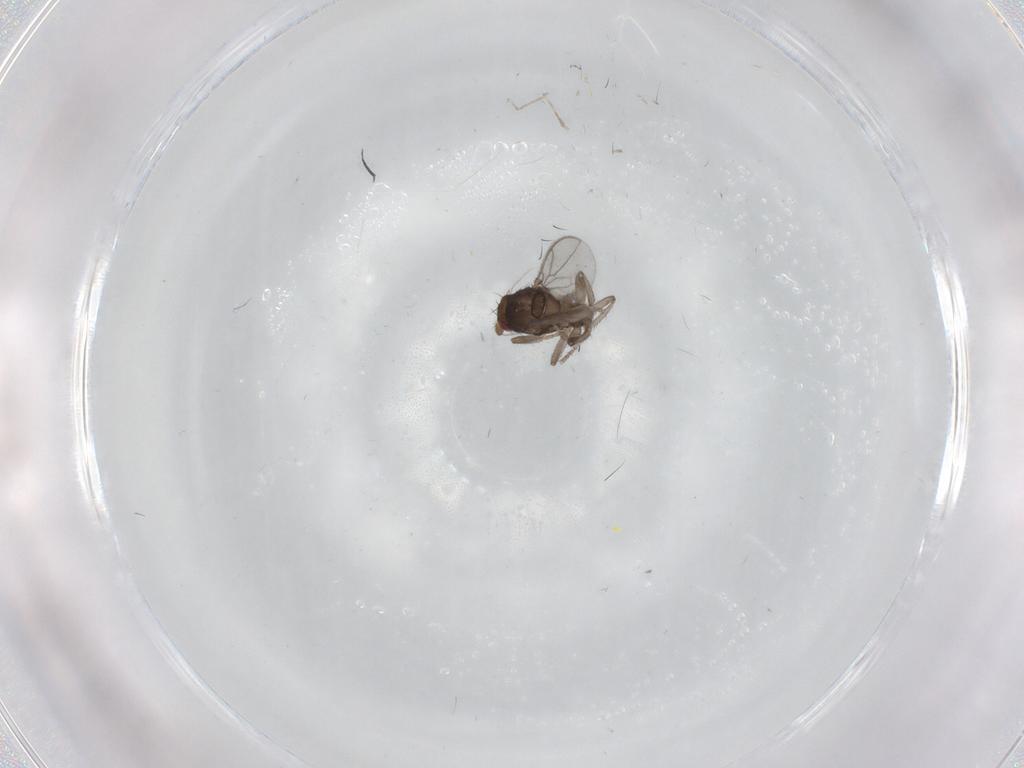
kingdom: Animalia
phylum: Arthropoda
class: Insecta
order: Diptera
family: Sphaeroceridae
